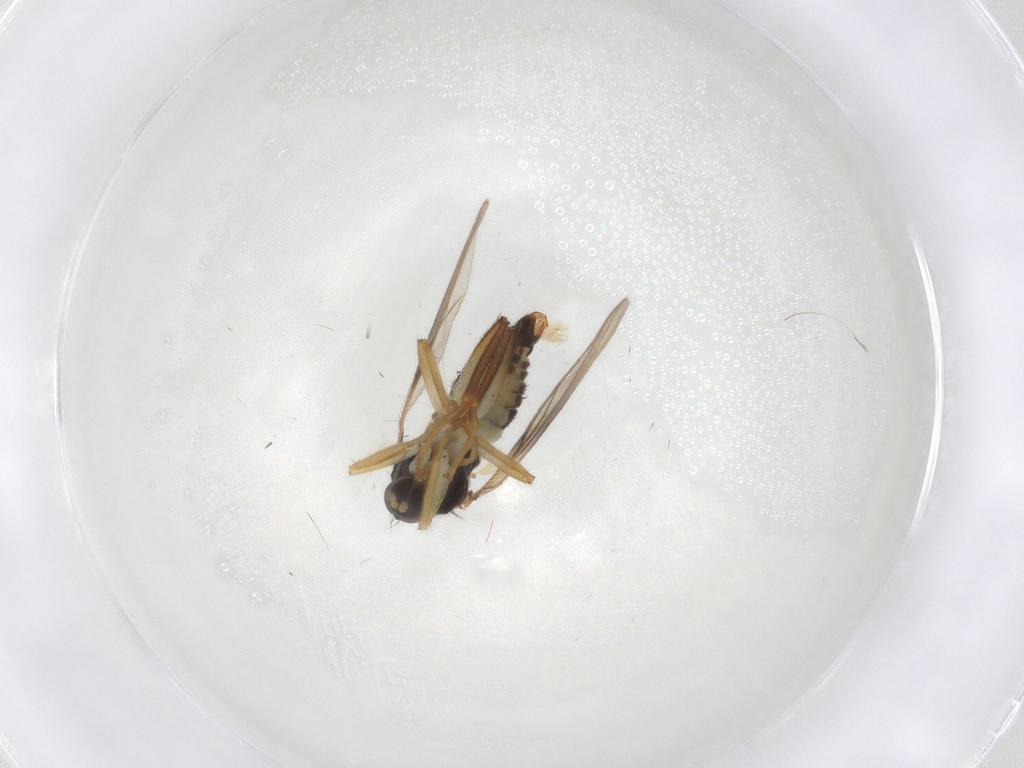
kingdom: Animalia
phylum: Arthropoda
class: Insecta
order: Diptera
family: Hybotidae
